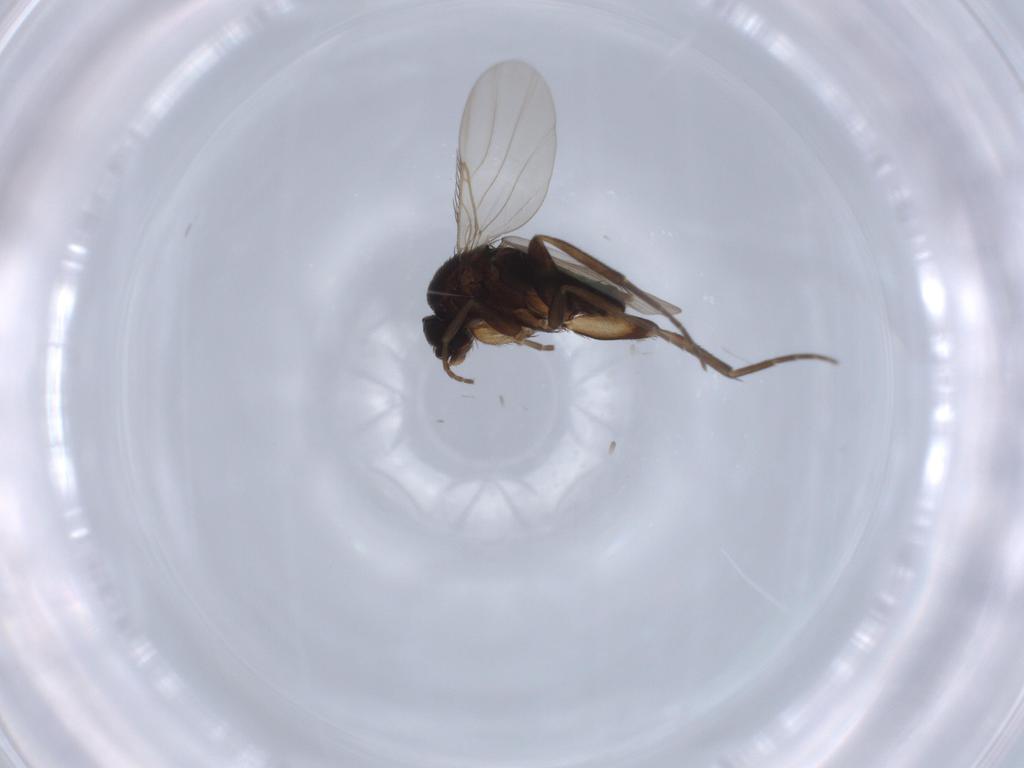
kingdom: Animalia
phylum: Arthropoda
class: Insecta
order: Diptera
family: Phoridae
